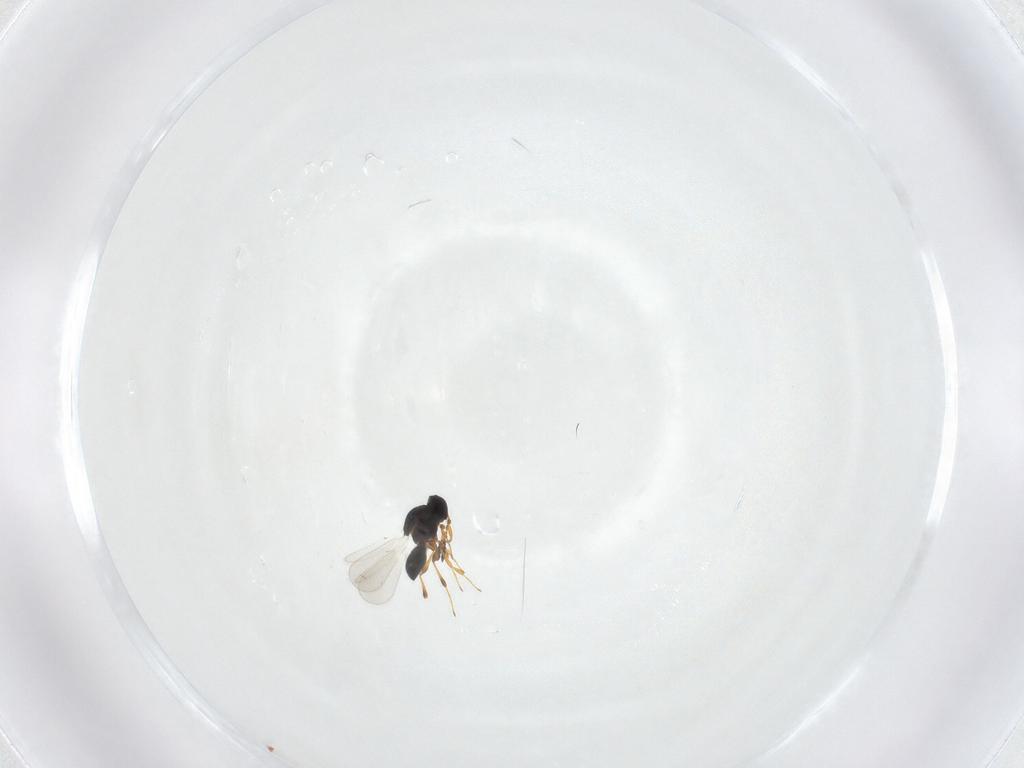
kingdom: Animalia
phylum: Arthropoda
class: Insecta
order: Hymenoptera
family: Platygastridae
